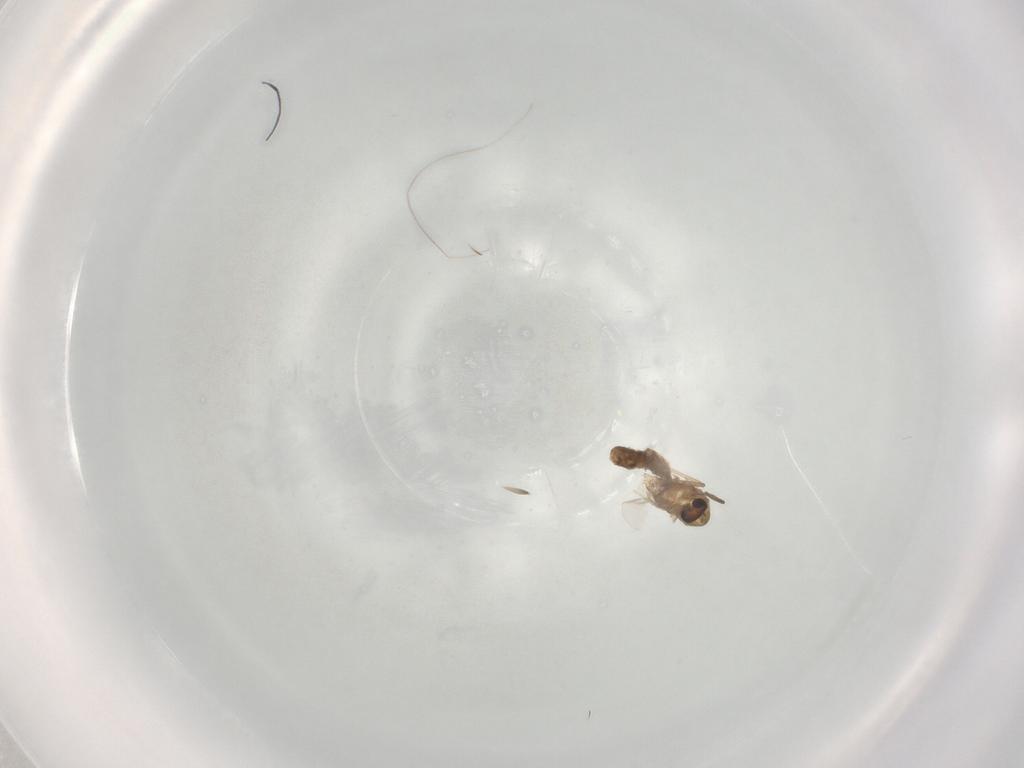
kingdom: Animalia
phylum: Arthropoda
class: Insecta
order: Diptera
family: Chironomidae
